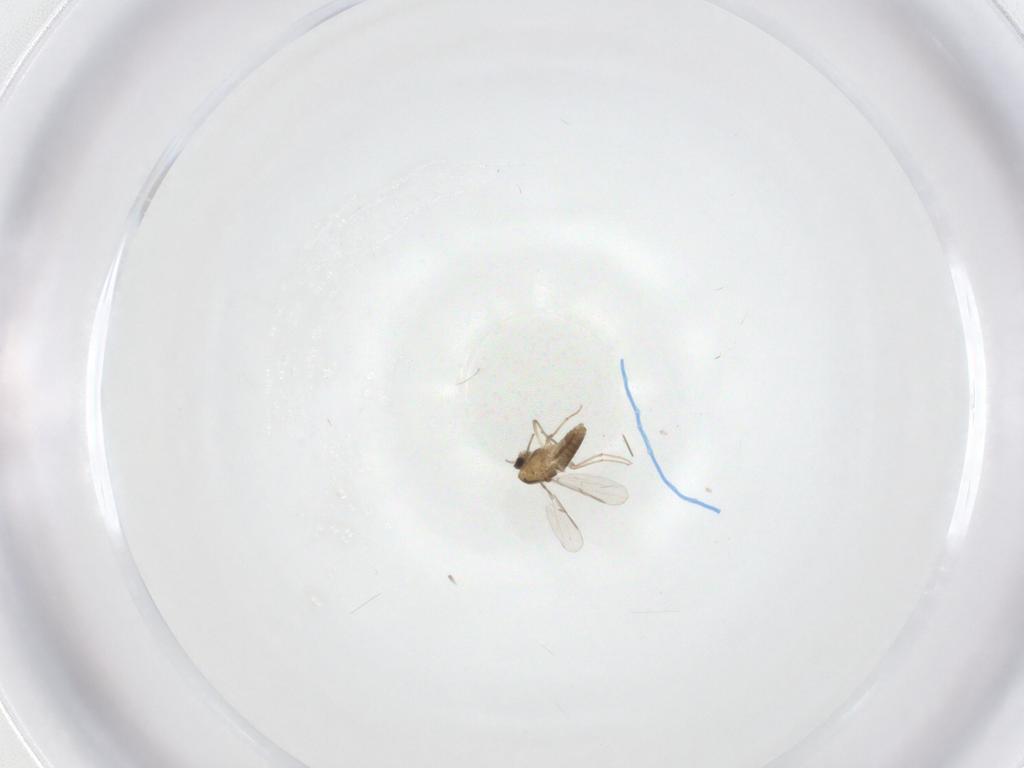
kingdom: Animalia
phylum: Arthropoda
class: Insecta
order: Diptera
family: Chironomidae
